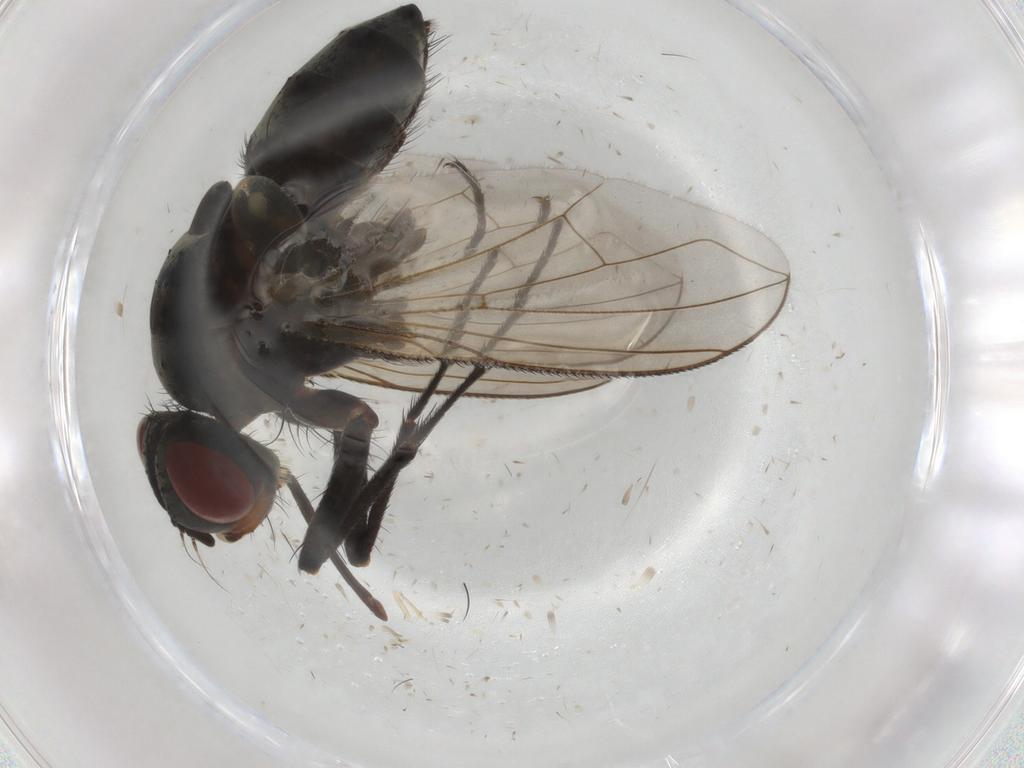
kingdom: Animalia
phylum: Arthropoda
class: Insecta
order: Diptera
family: Tachinidae
